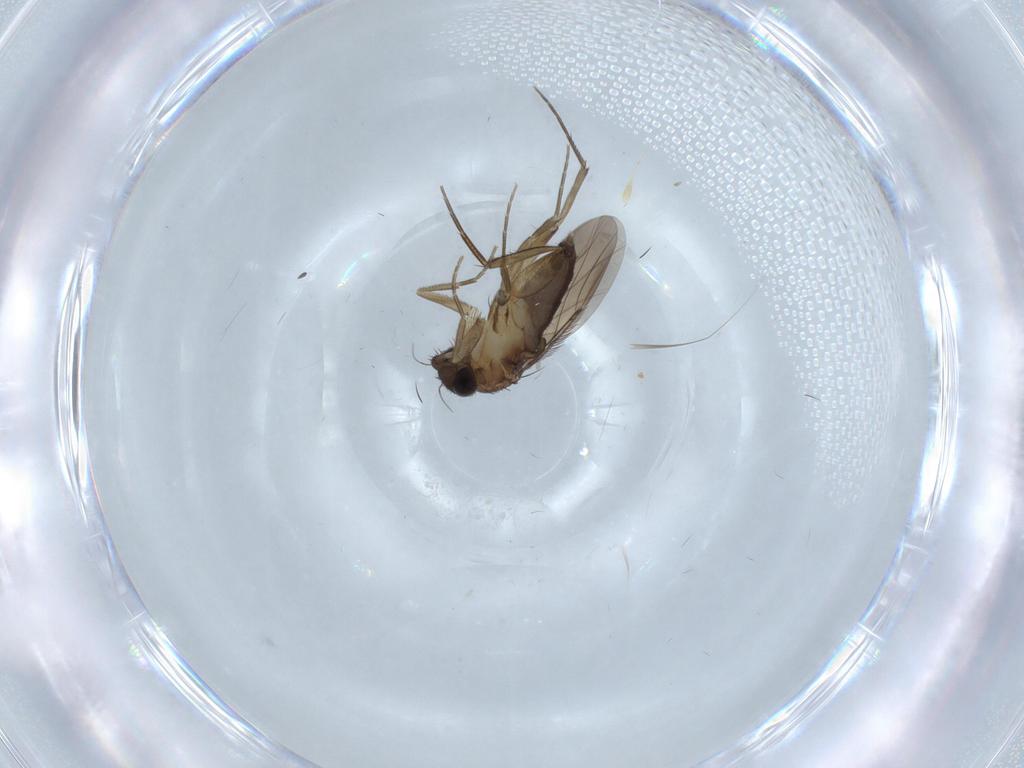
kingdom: Animalia
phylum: Arthropoda
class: Insecta
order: Diptera
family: Phoridae
